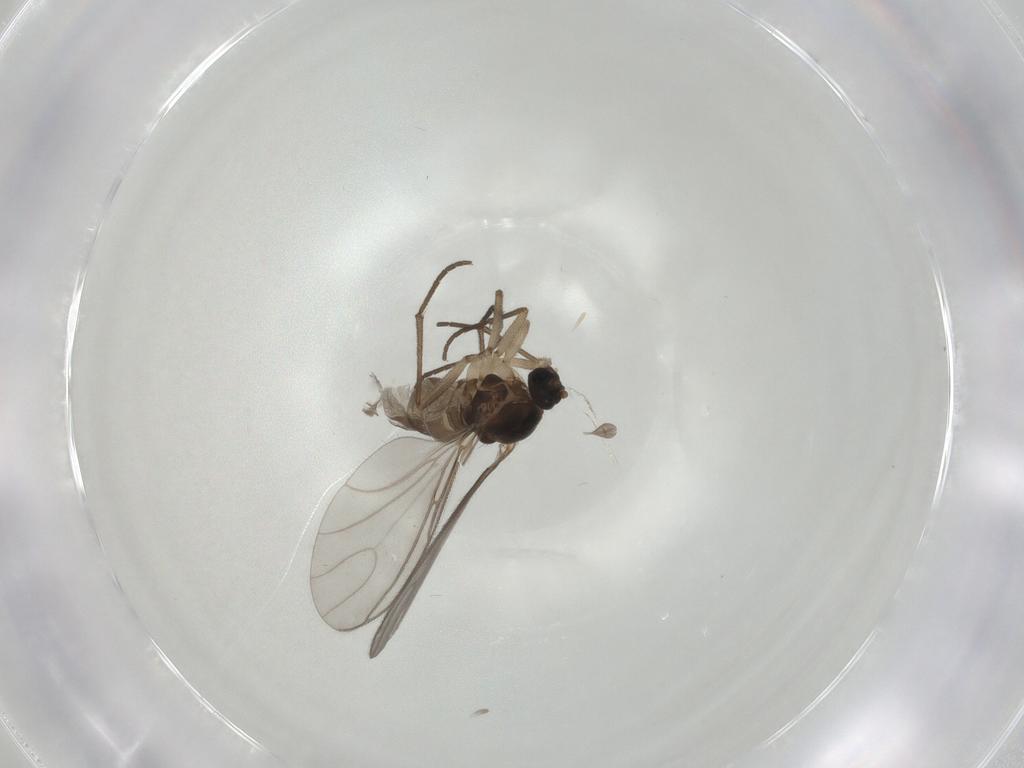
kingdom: Animalia
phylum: Arthropoda
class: Insecta
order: Diptera
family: Sciaridae
